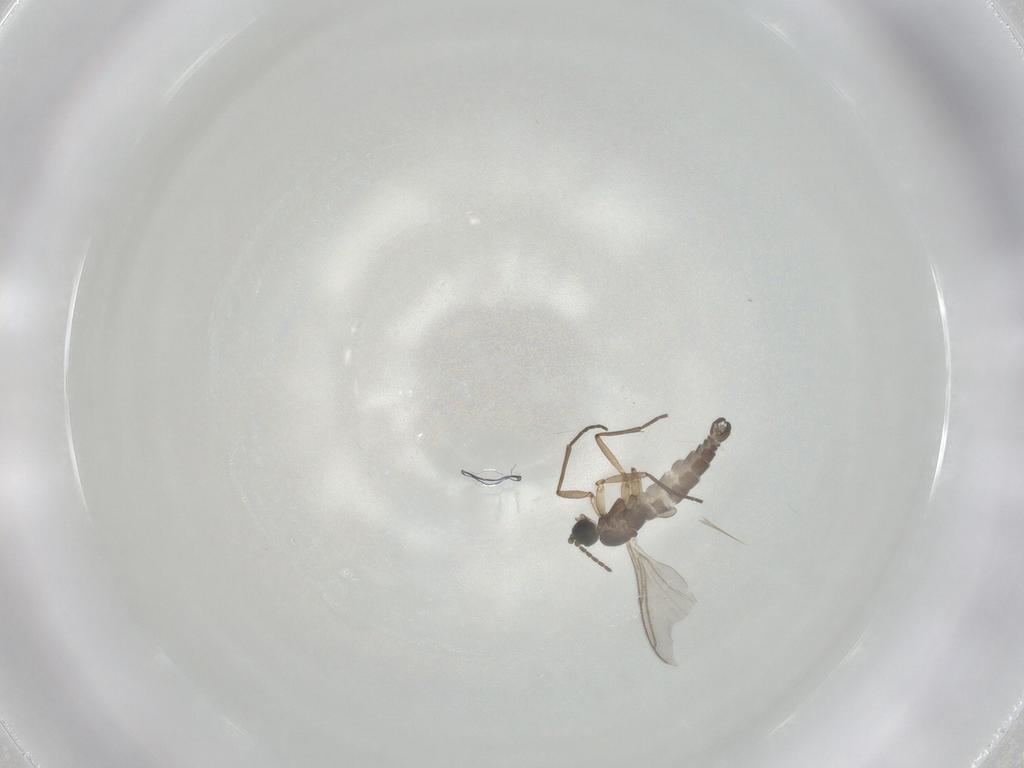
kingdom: Animalia
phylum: Arthropoda
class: Insecta
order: Diptera
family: Sciaridae
